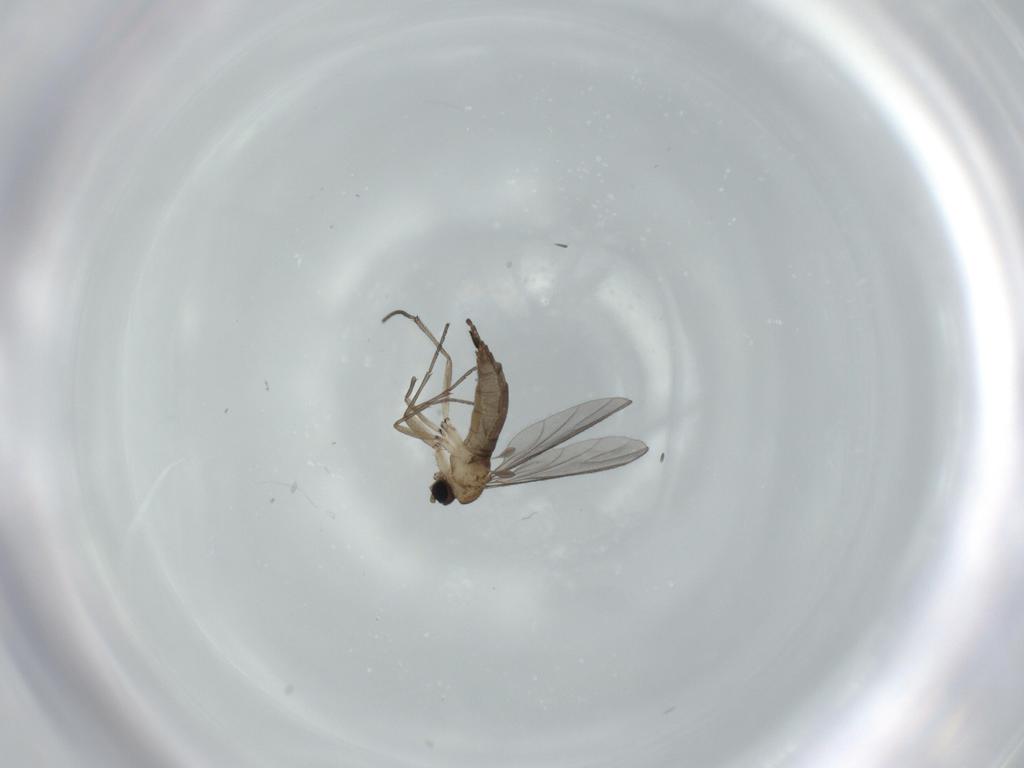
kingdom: Animalia
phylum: Arthropoda
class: Insecta
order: Diptera
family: Sciaridae
